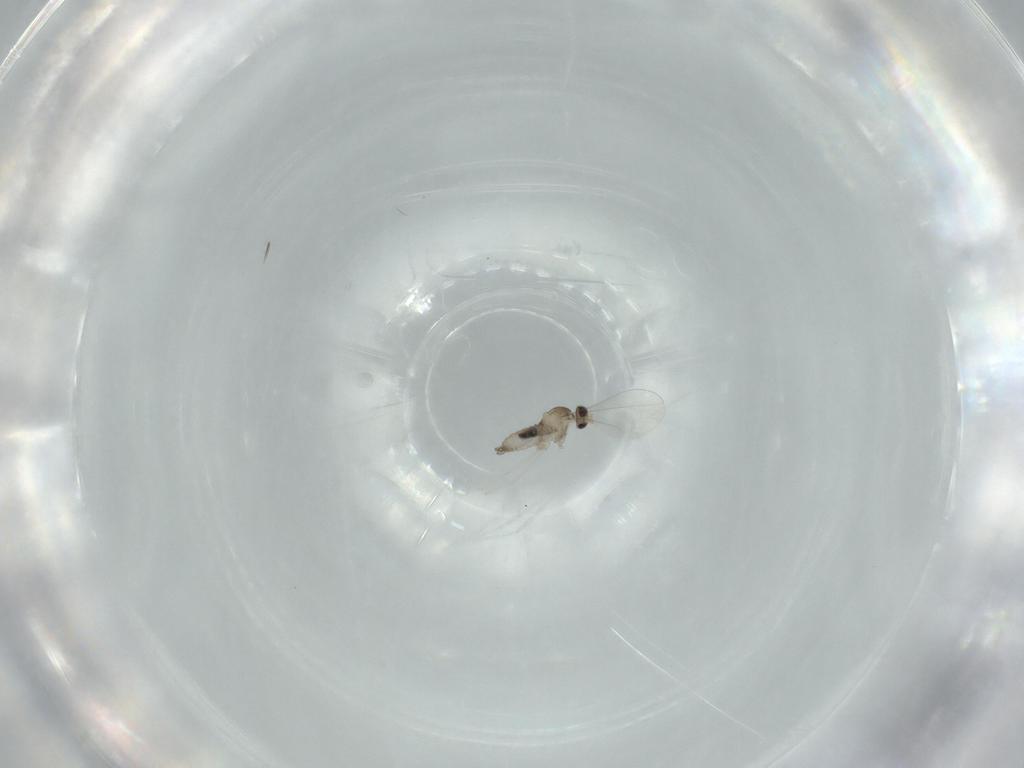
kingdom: Animalia
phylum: Arthropoda
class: Insecta
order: Diptera
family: Cecidomyiidae
